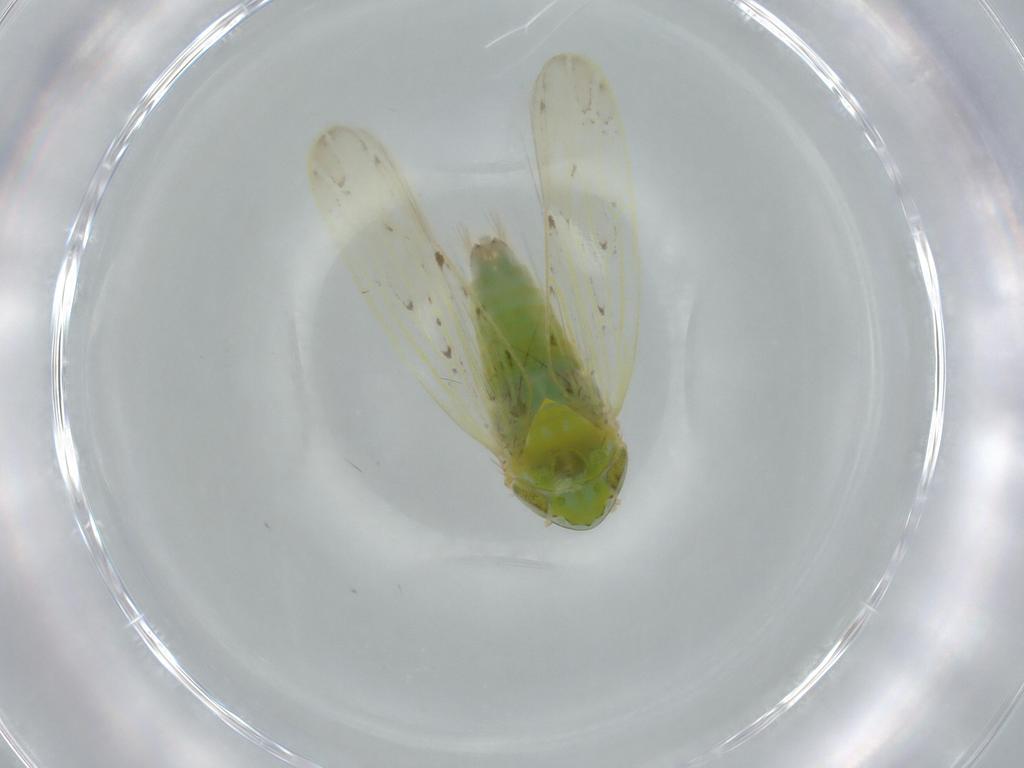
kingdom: Animalia
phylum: Arthropoda
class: Insecta
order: Hemiptera
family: Cicadellidae
